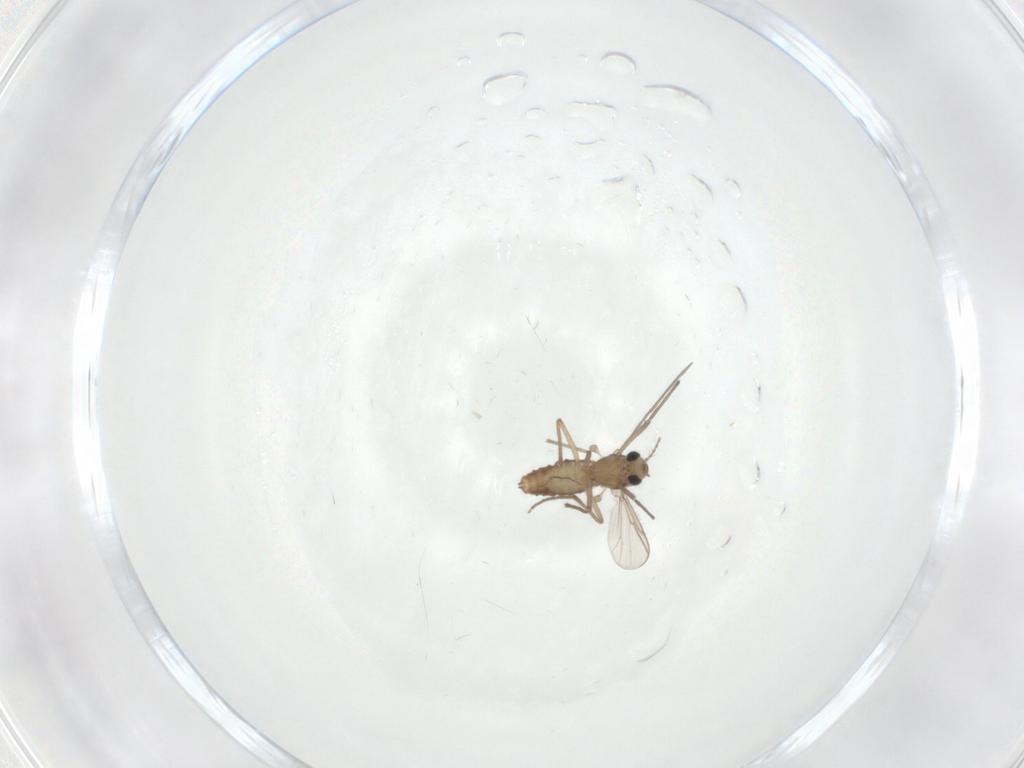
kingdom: Animalia
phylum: Arthropoda
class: Insecta
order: Diptera
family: Chironomidae
